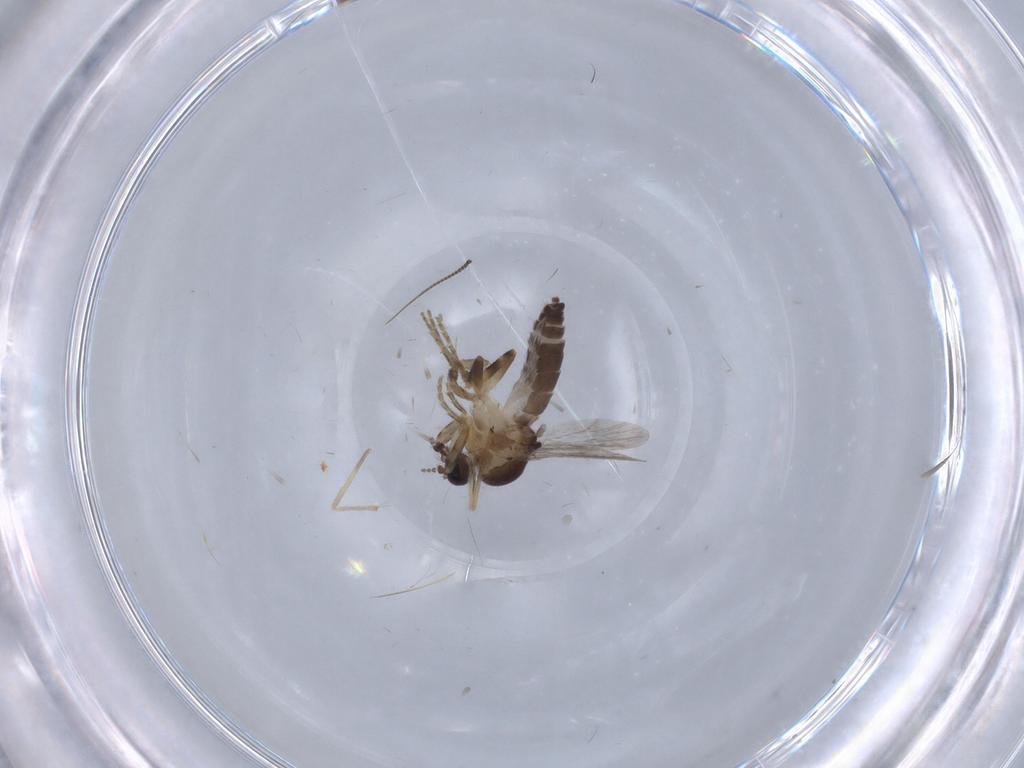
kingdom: Animalia
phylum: Arthropoda
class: Insecta
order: Diptera
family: Ceratopogonidae
